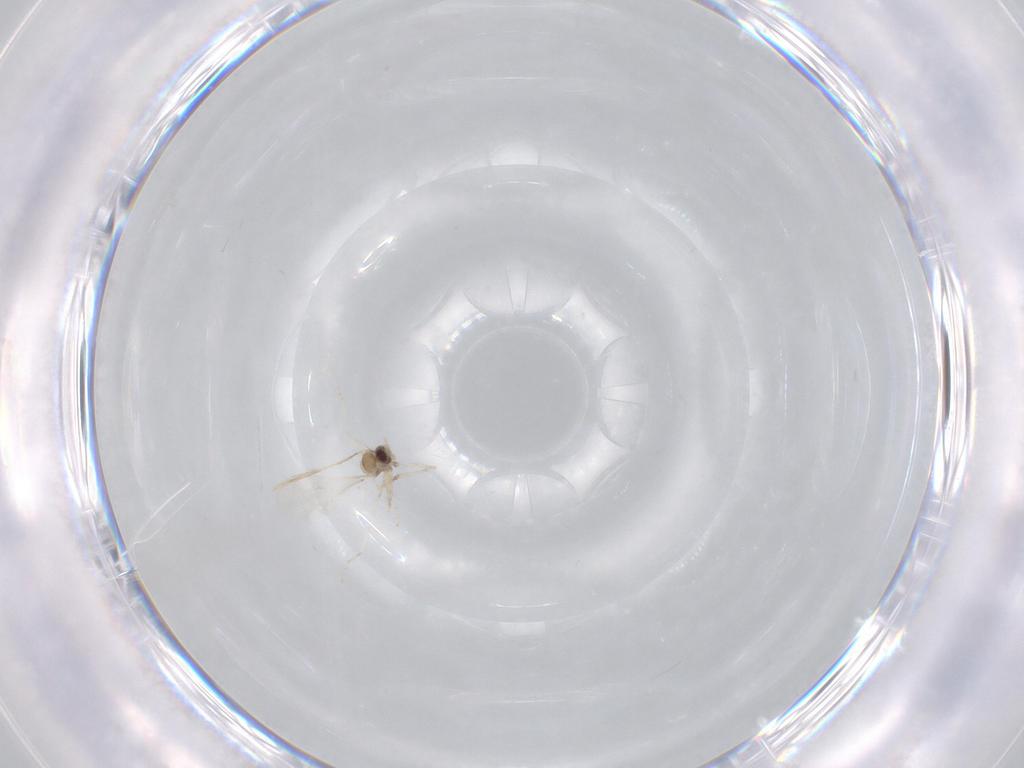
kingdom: Animalia
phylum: Arthropoda
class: Insecta
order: Diptera
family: Cecidomyiidae
